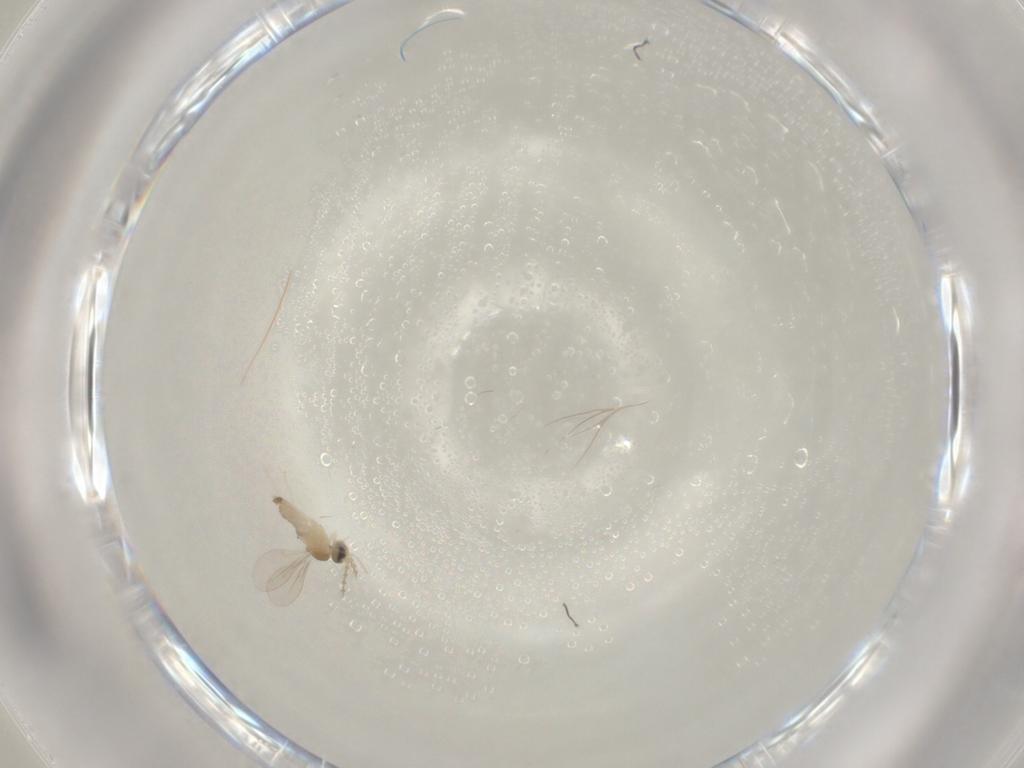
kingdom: Animalia
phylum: Arthropoda
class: Insecta
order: Diptera
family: Cecidomyiidae
